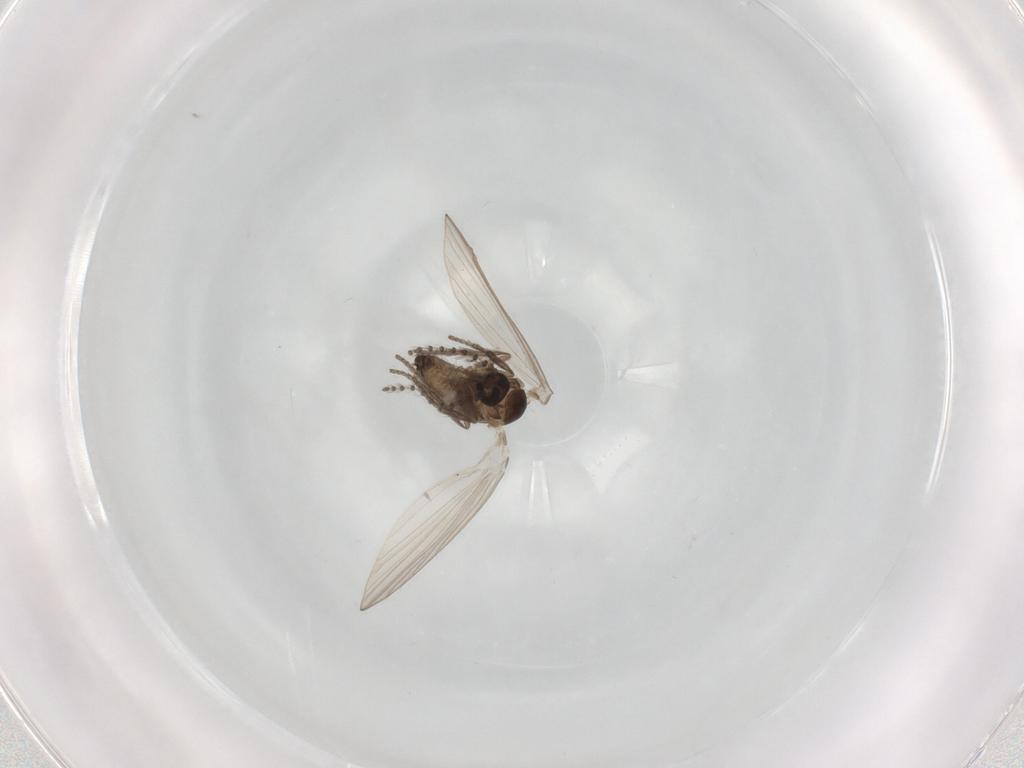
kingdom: Animalia
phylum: Arthropoda
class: Insecta
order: Diptera
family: Psychodidae
